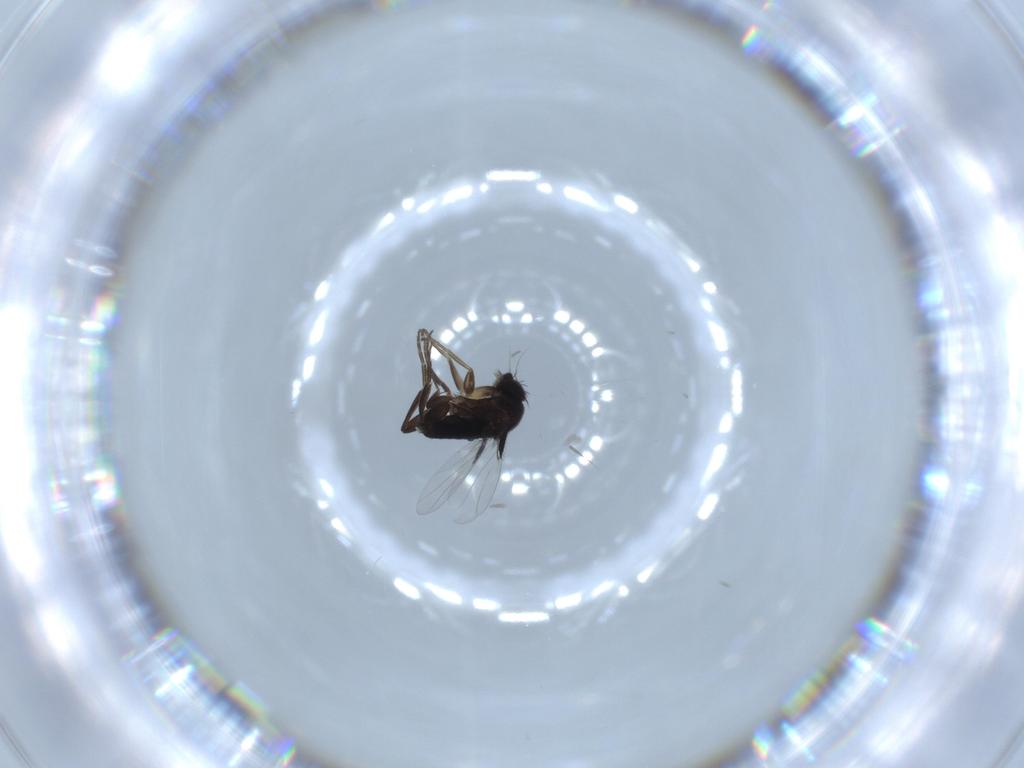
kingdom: Animalia
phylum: Arthropoda
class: Insecta
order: Diptera
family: Phoridae
